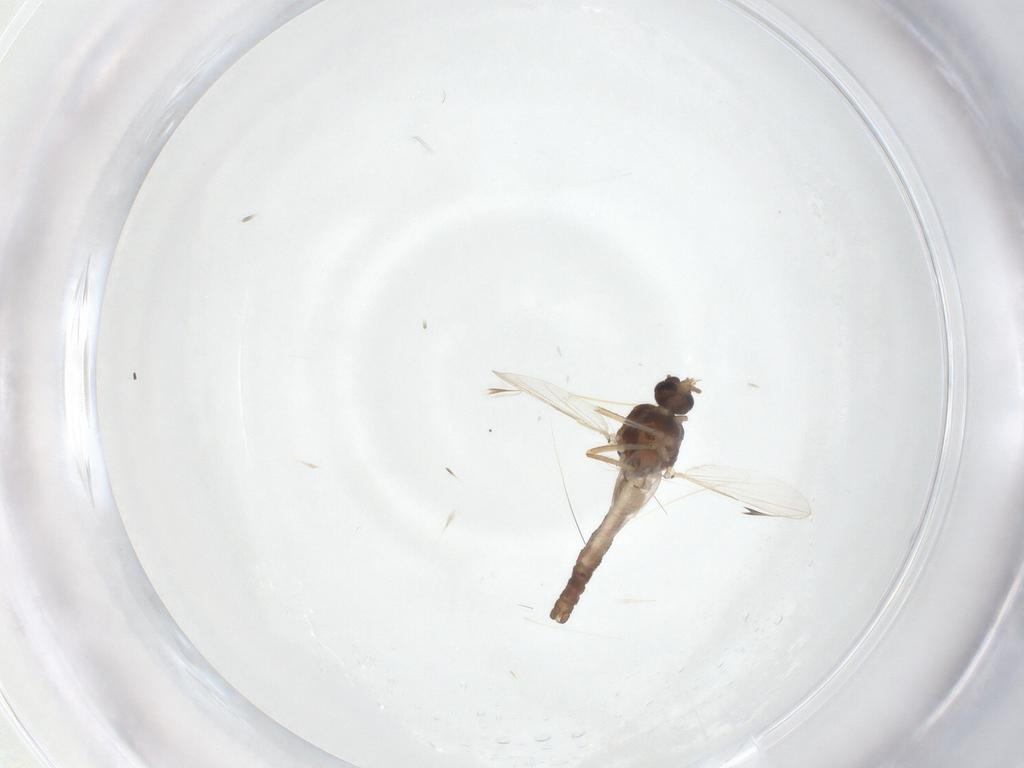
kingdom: Animalia
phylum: Arthropoda
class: Insecta
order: Diptera
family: Ceratopogonidae
